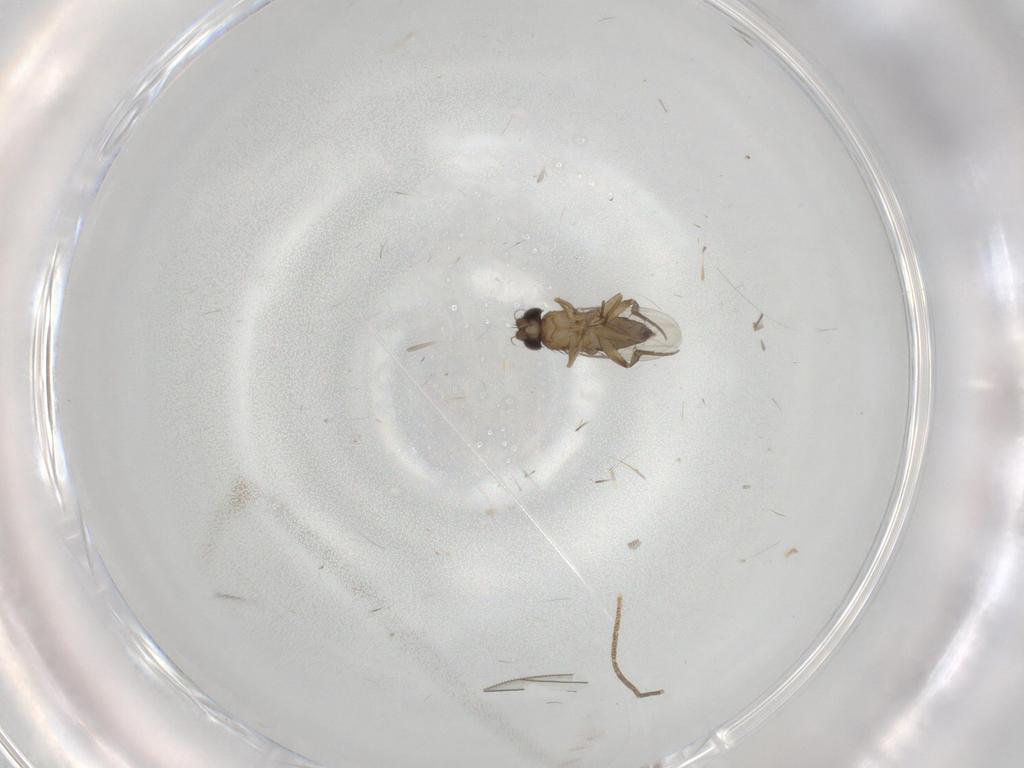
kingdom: Animalia
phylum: Arthropoda
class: Insecta
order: Diptera
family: Phoridae
